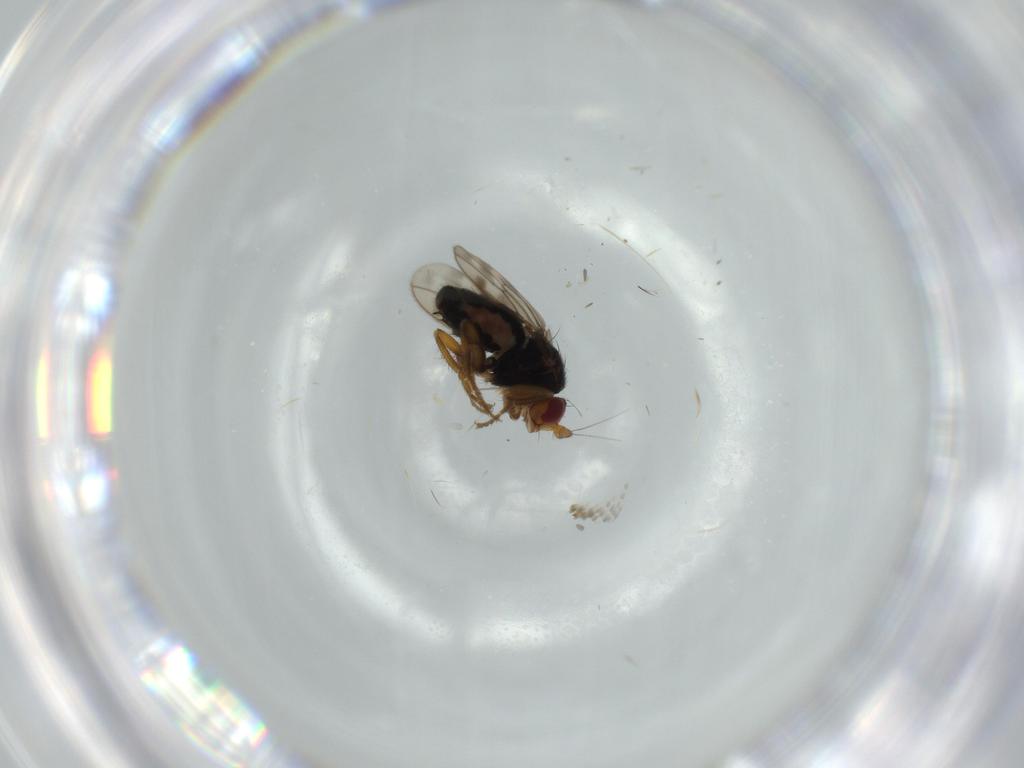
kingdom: Animalia
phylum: Arthropoda
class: Insecta
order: Diptera
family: Sphaeroceridae
